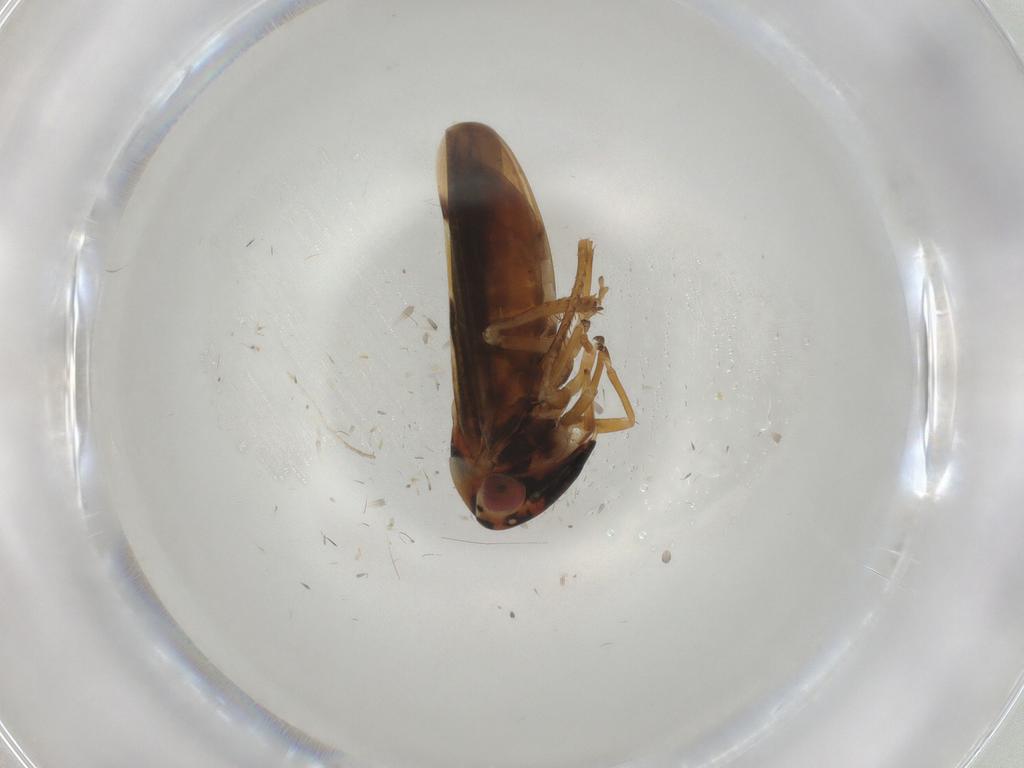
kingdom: Animalia
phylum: Arthropoda
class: Insecta
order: Hemiptera
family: Cicadellidae
